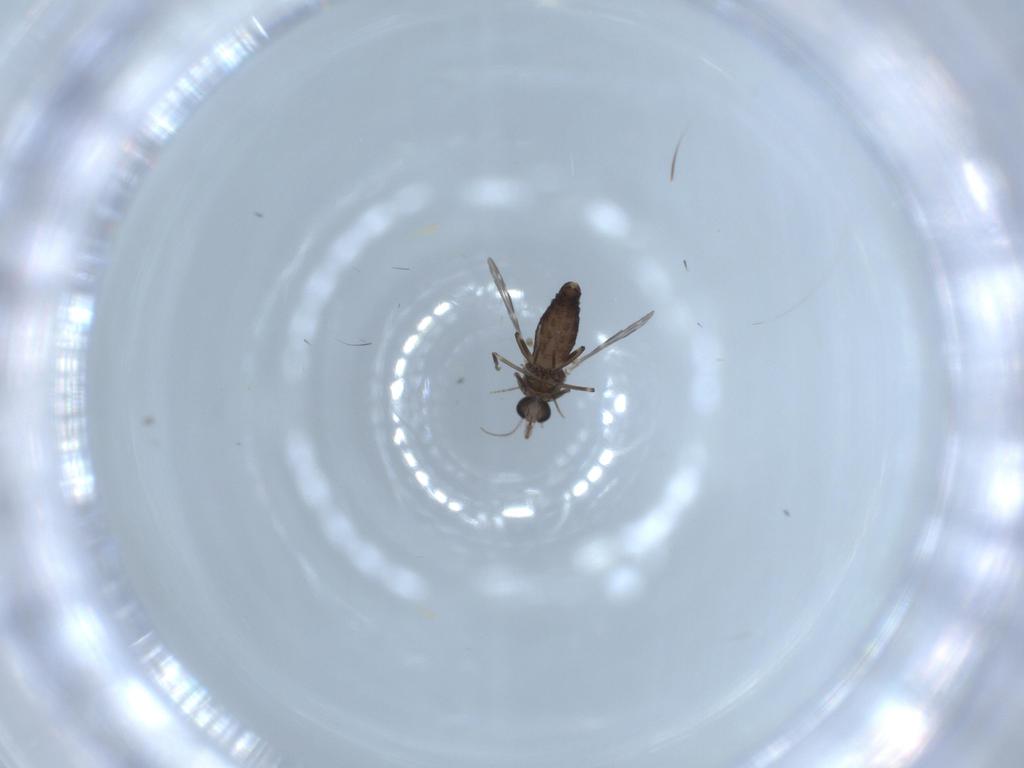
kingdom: Animalia
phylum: Arthropoda
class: Insecta
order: Diptera
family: Ceratopogonidae
